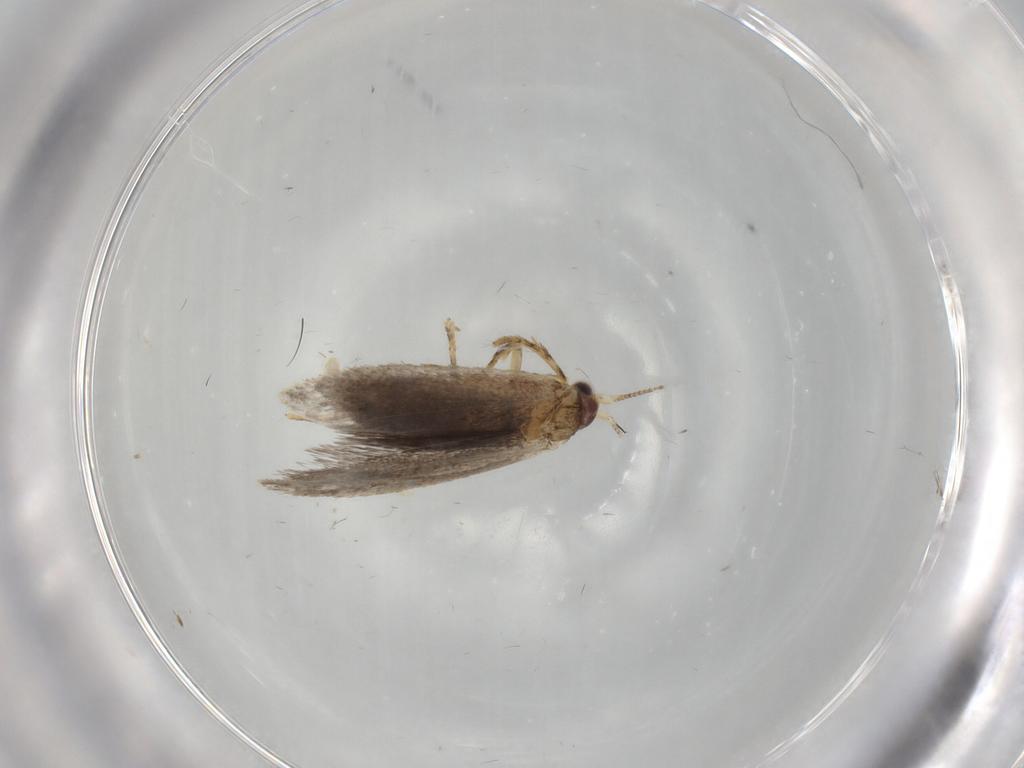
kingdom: Animalia
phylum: Arthropoda
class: Insecta
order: Lepidoptera
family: Nepticulidae
